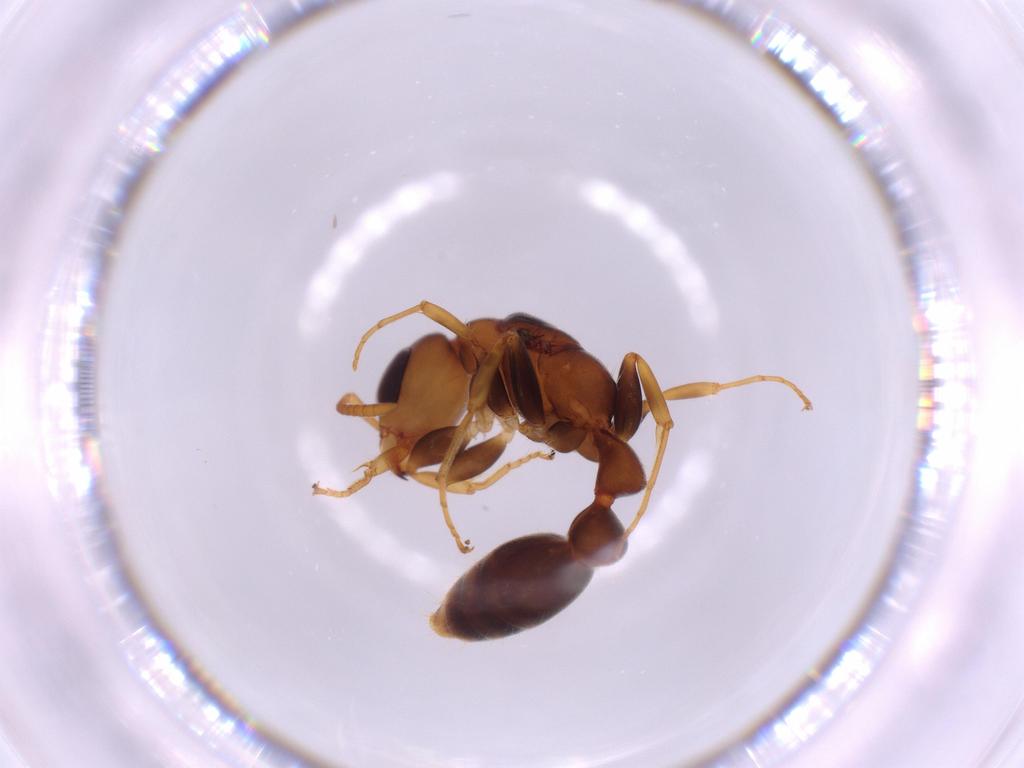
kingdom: Animalia
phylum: Arthropoda
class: Insecta
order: Hymenoptera
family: Formicidae
